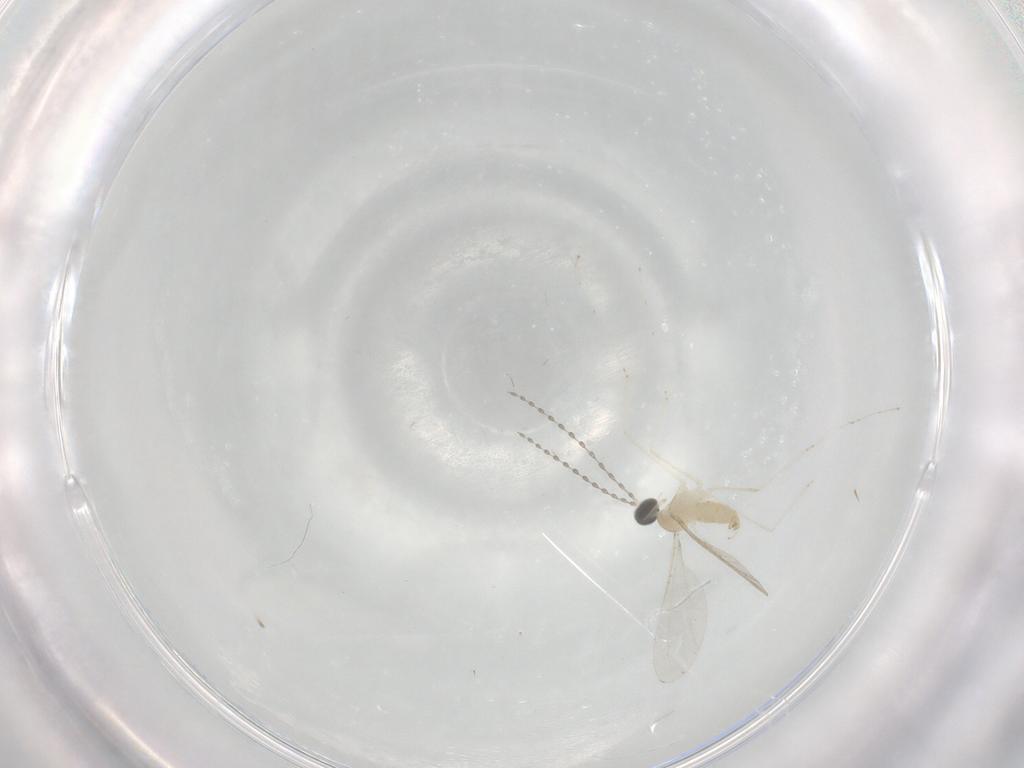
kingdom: Animalia
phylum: Arthropoda
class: Insecta
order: Diptera
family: Cecidomyiidae
